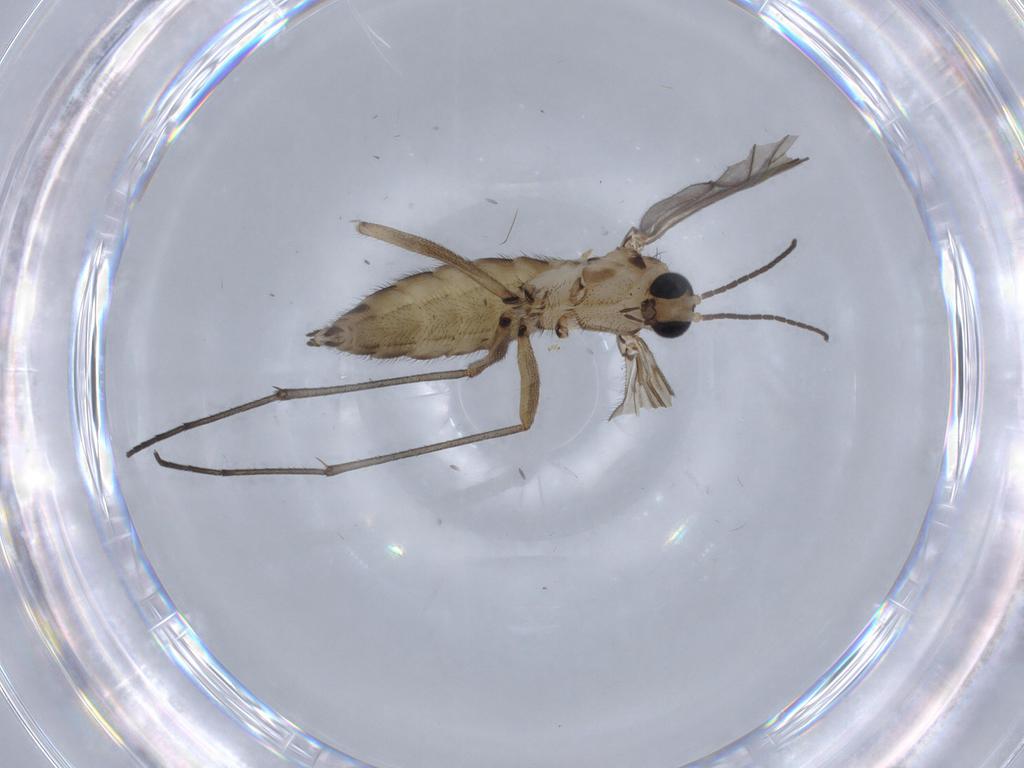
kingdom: Animalia
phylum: Arthropoda
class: Insecta
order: Diptera
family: Sciaridae
